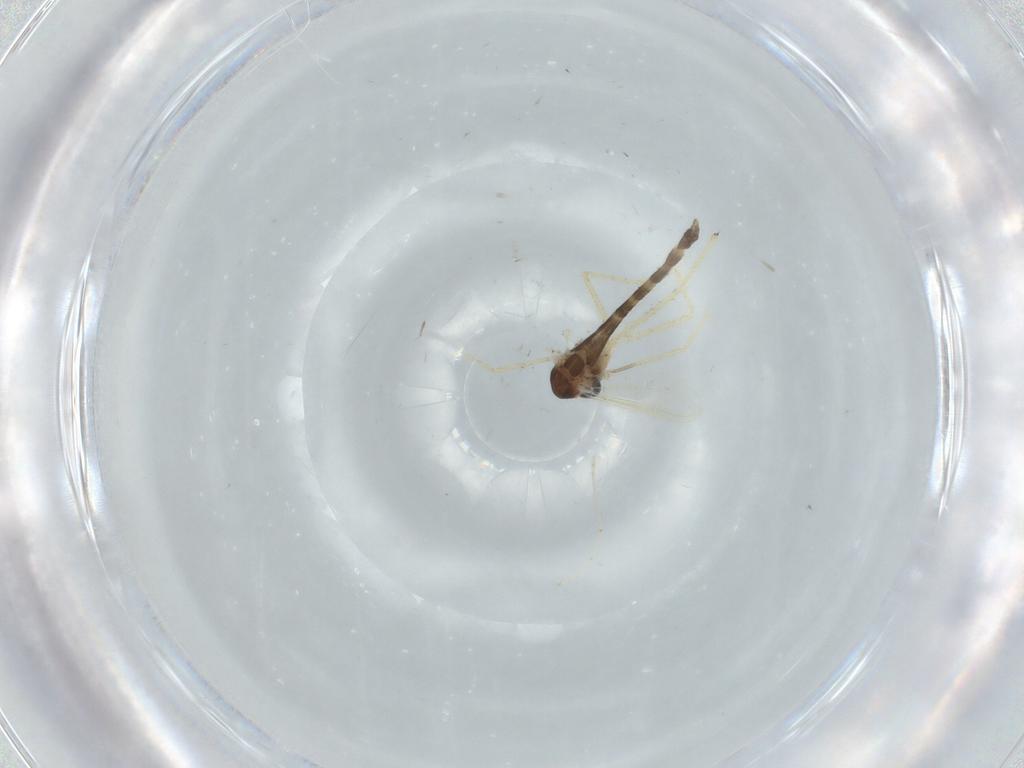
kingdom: Animalia
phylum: Arthropoda
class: Insecta
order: Diptera
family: Chironomidae
